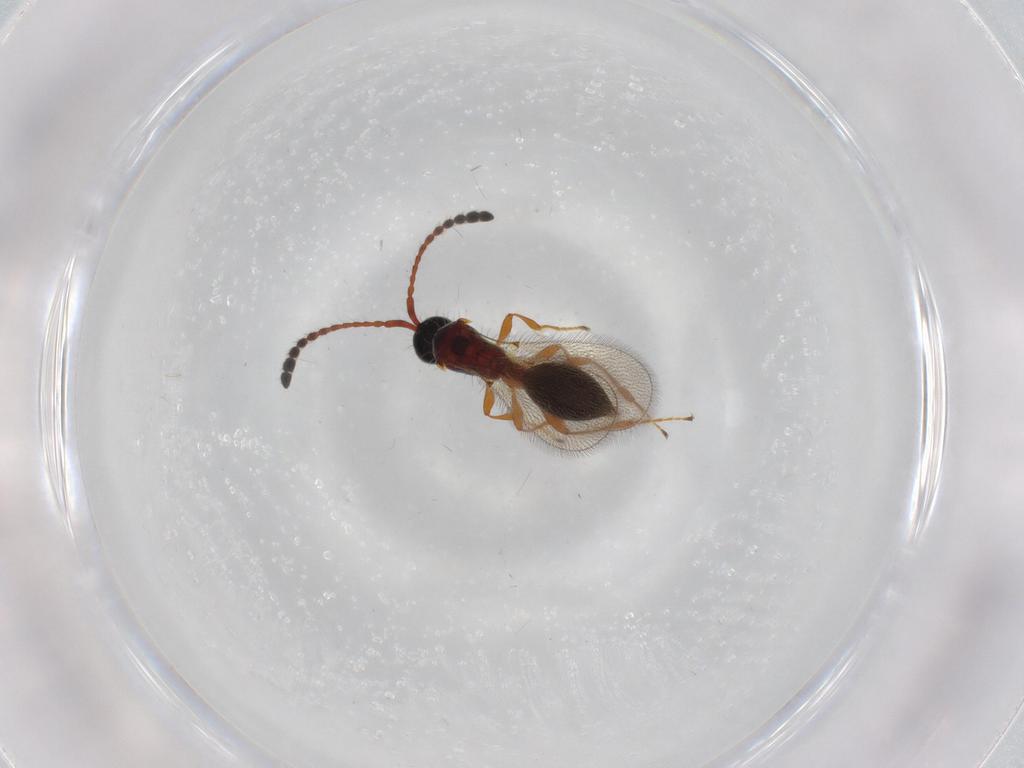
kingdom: Animalia
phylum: Arthropoda
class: Insecta
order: Hymenoptera
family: Diapriidae
